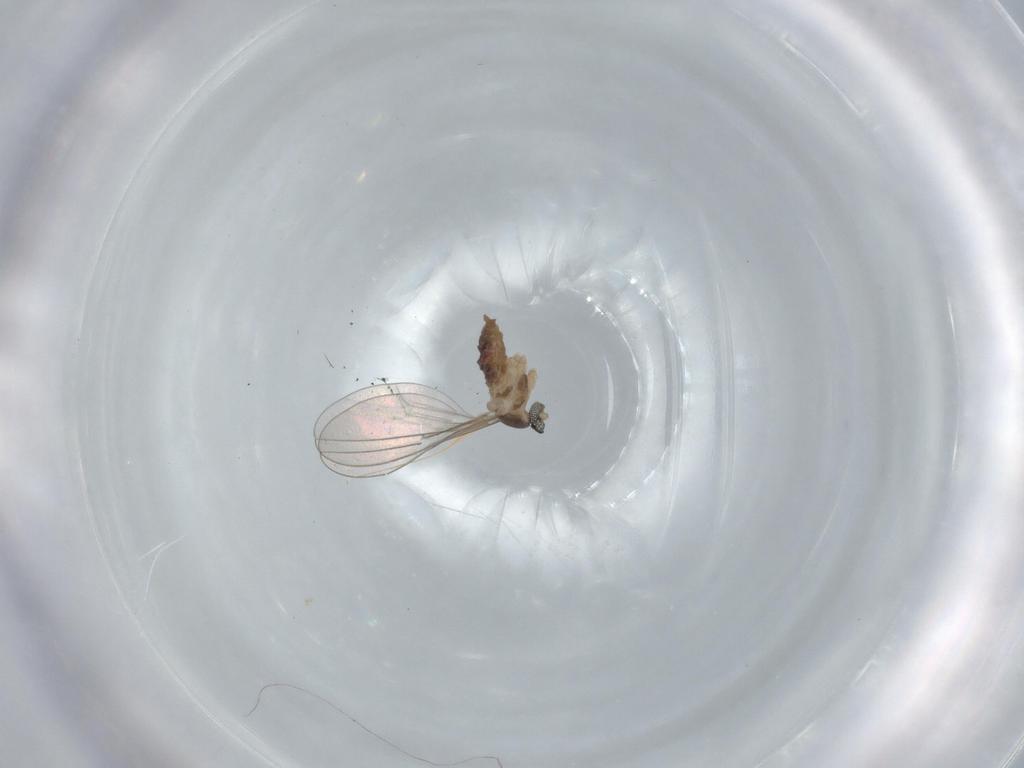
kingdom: Animalia
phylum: Arthropoda
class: Insecta
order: Diptera
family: Cecidomyiidae
